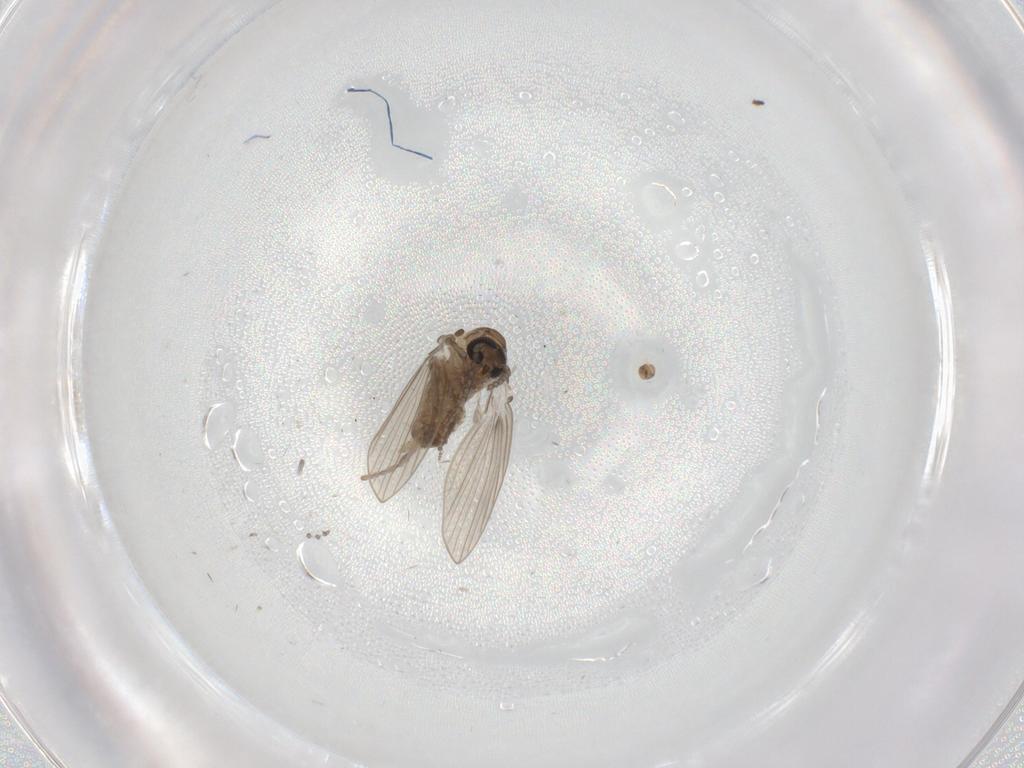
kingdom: Animalia
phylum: Arthropoda
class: Insecta
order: Diptera
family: Psychodidae
